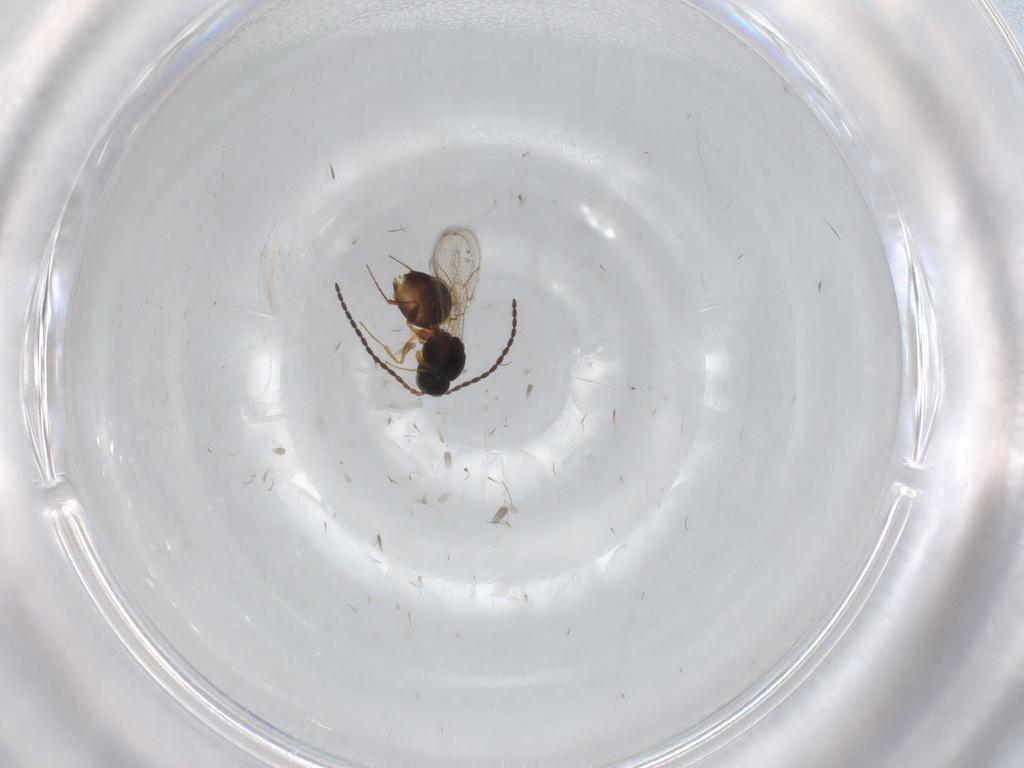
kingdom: Animalia
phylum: Arthropoda
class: Insecta
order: Hymenoptera
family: Figitidae
